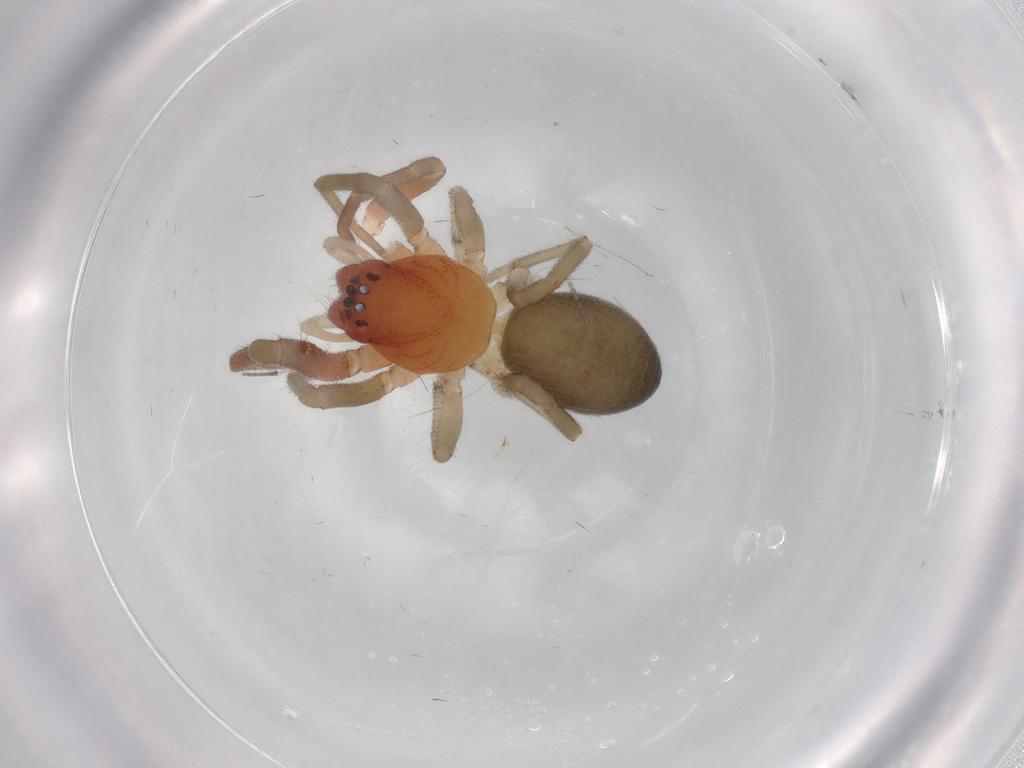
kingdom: Animalia
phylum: Arthropoda
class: Arachnida
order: Araneae
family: Trachelidae
